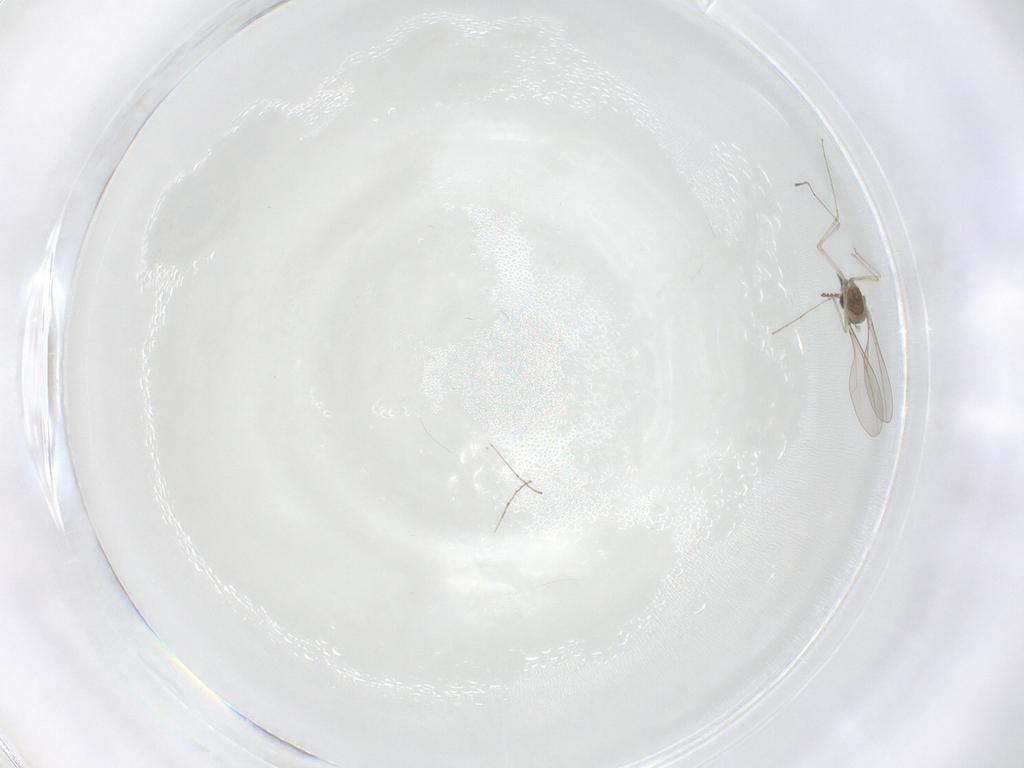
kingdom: Animalia
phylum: Arthropoda
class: Insecta
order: Diptera
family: Cecidomyiidae
